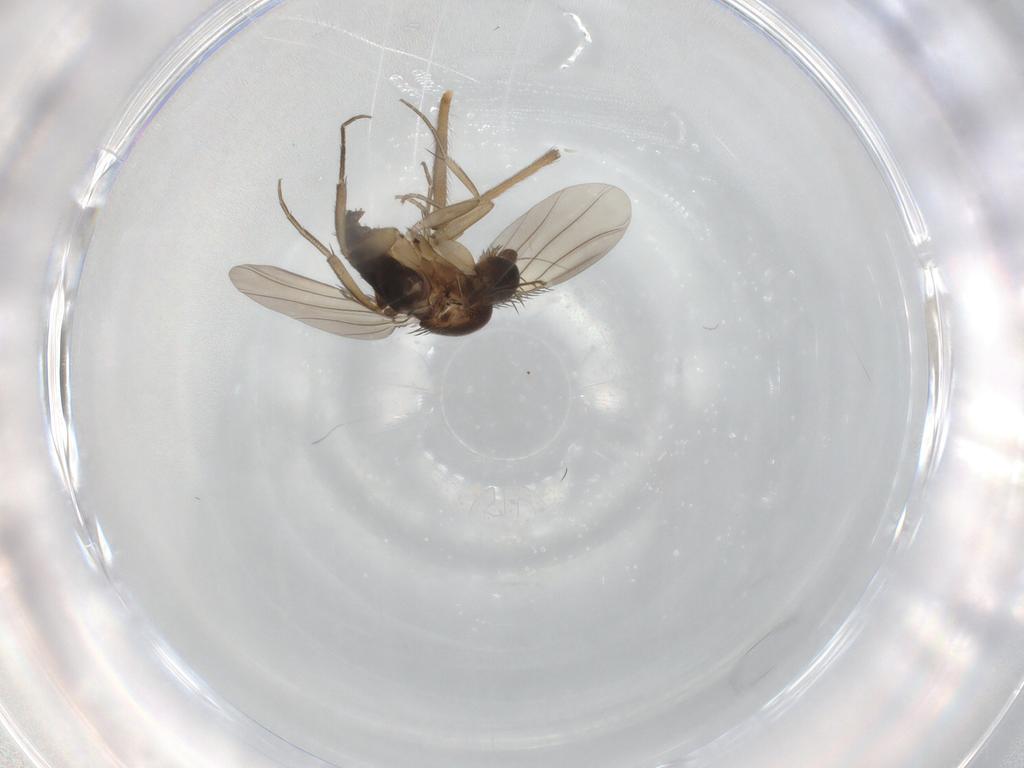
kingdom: Animalia
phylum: Arthropoda
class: Insecta
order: Diptera
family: Chironomidae
